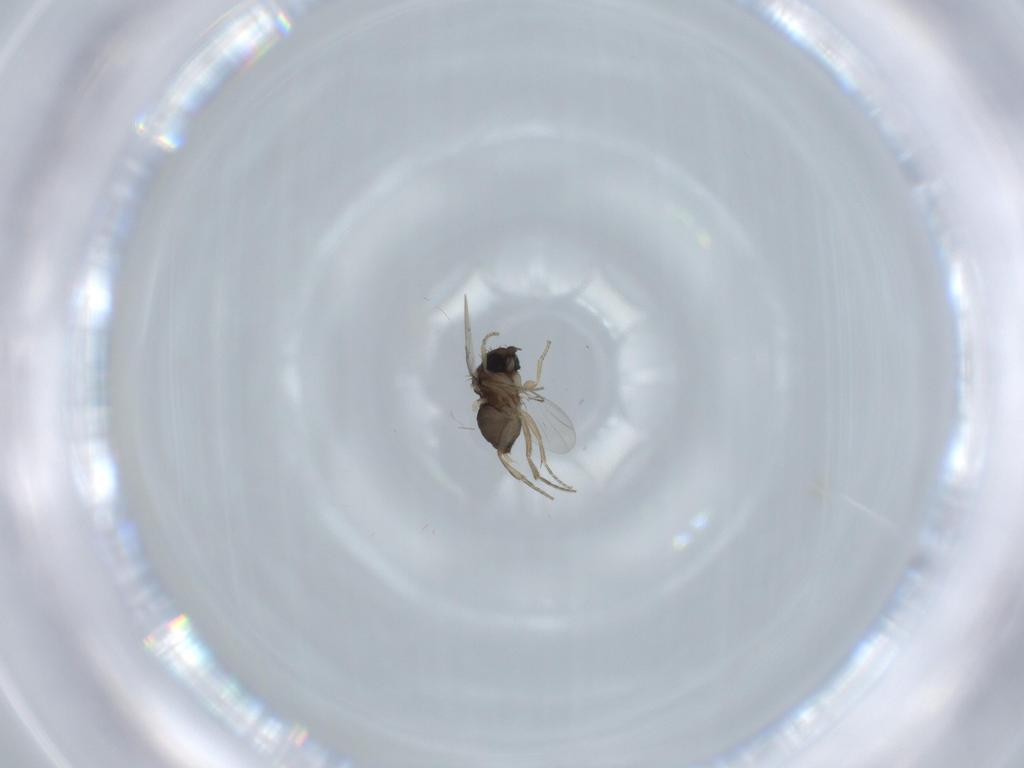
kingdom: Animalia
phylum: Arthropoda
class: Insecta
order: Diptera
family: Phoridae
